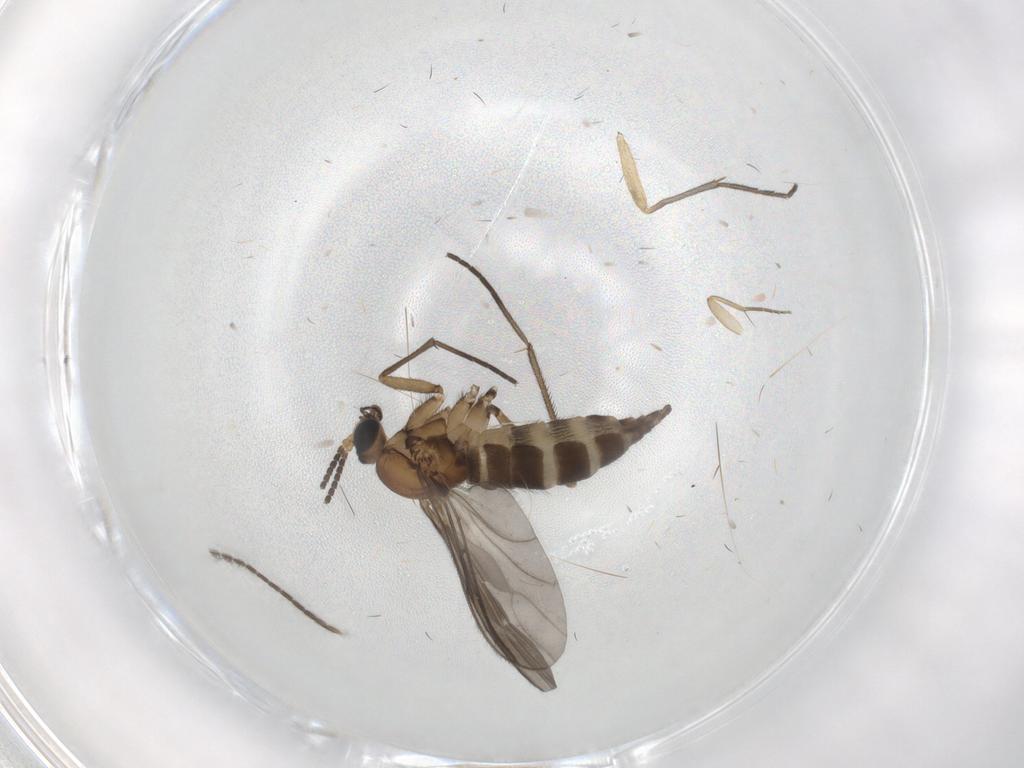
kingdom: Animalia
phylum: Arthropoda
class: Insecta
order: Diptera
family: Sciaridae
